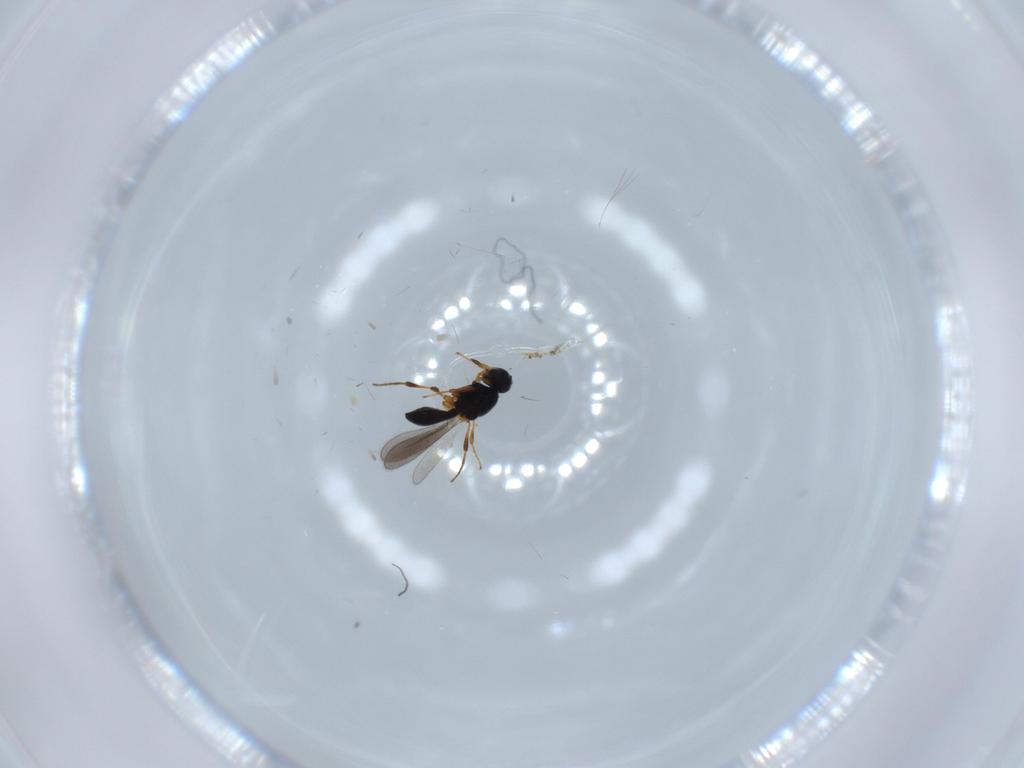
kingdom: Animalia
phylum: Arthropoda
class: Insecta
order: Hymenoptera
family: Platygastridae
